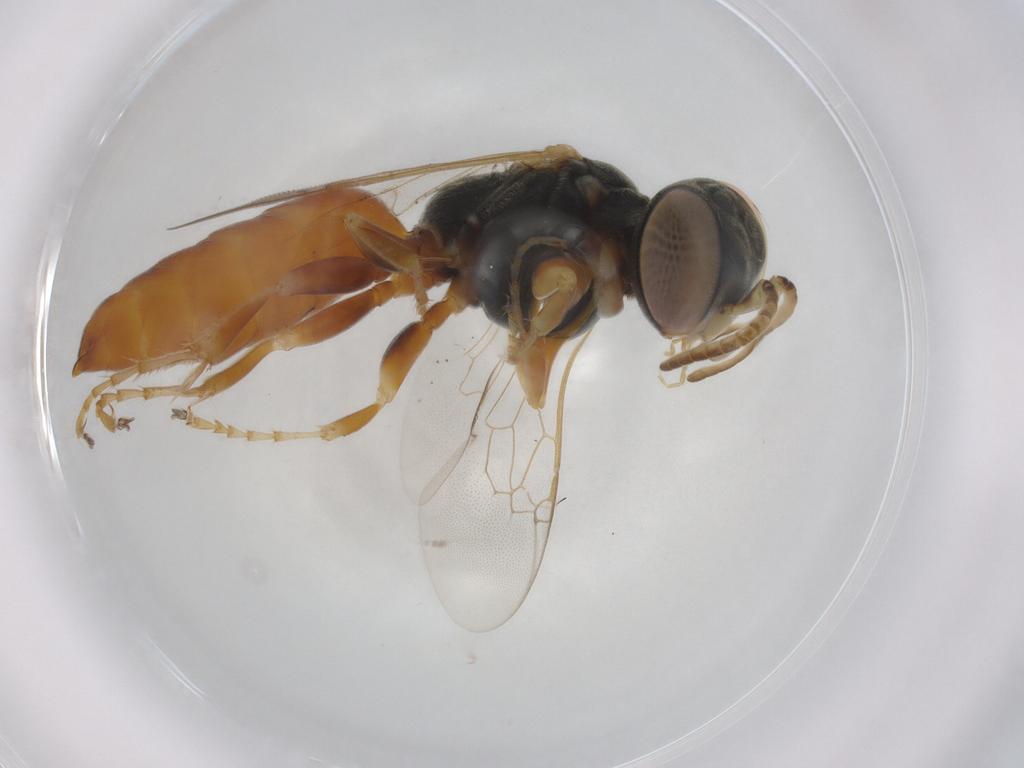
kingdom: Animalia
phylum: Arthropoda
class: Insecta
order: Hymenoptera
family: Crabronidae
